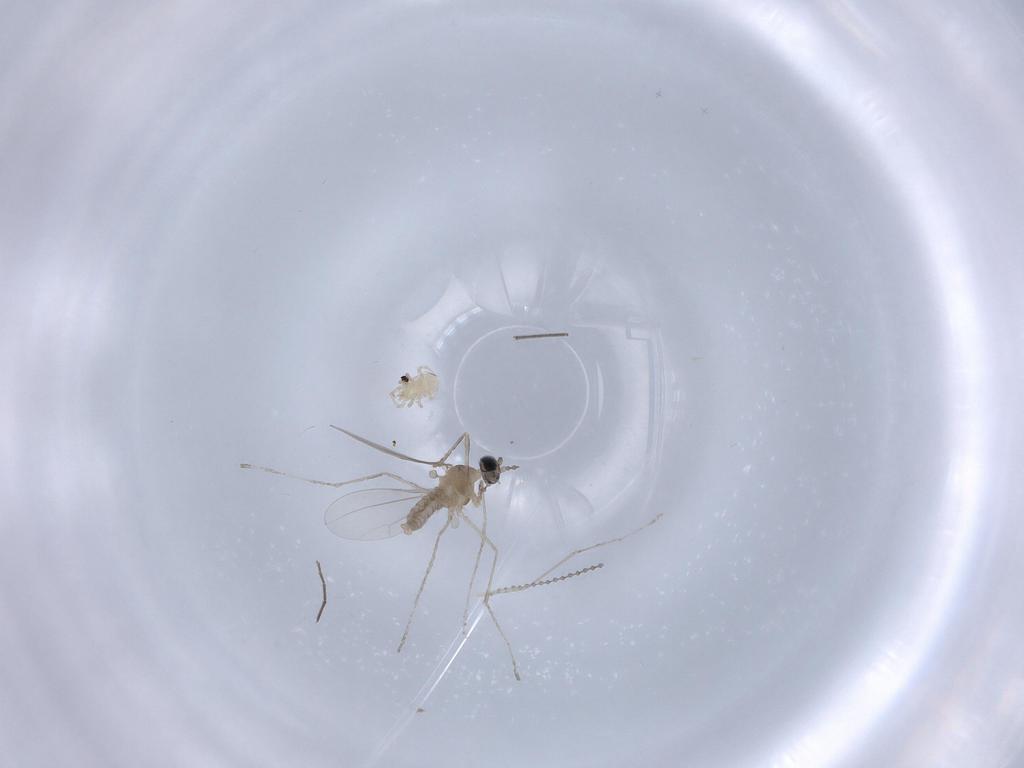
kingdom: Animalia
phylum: Arthropoda
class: Insecta
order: Diptera
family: Cecidomyiidae
